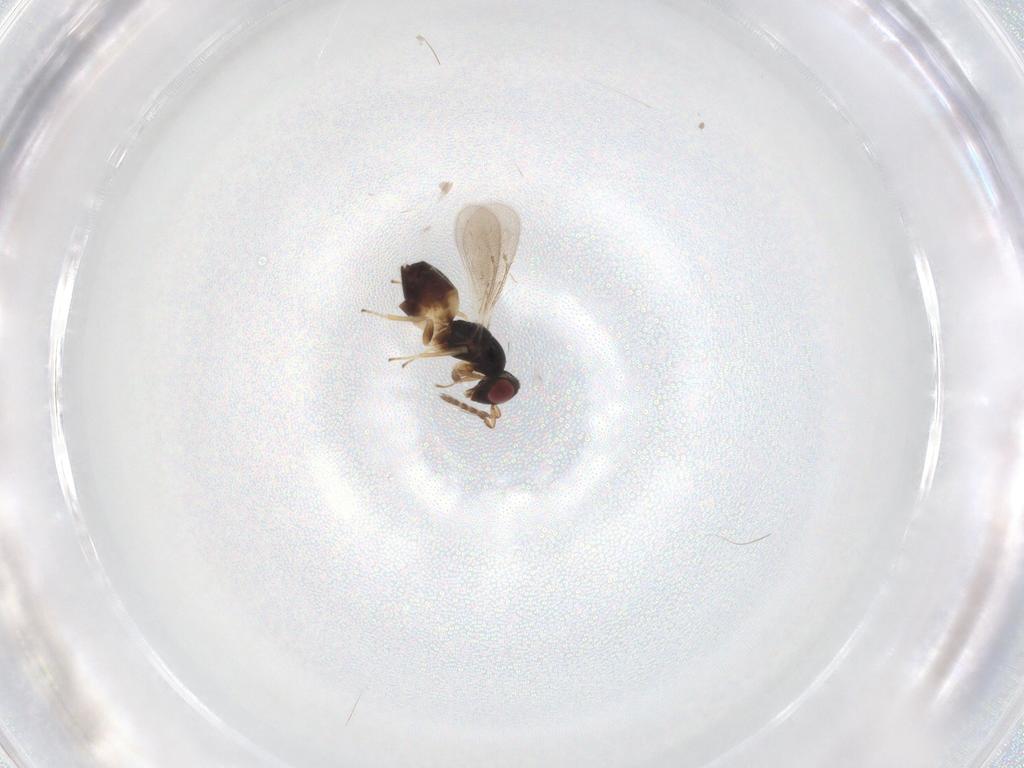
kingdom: Animalia
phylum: Arthropoda
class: Insecta
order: Hymenoptera
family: Eulophidae
